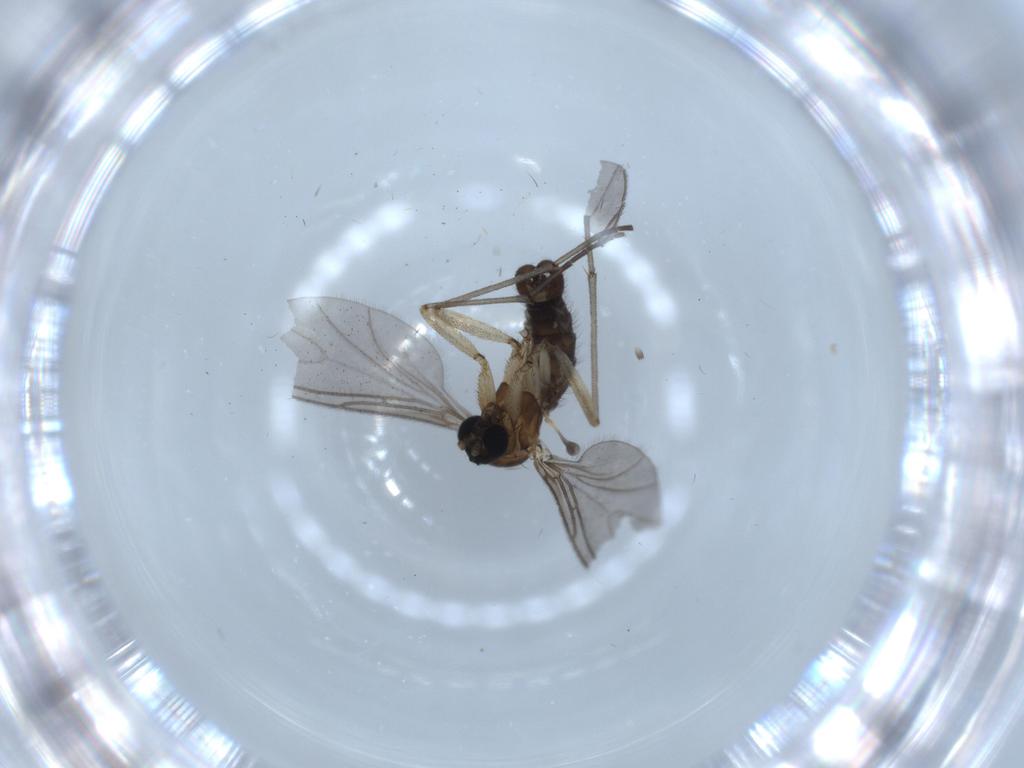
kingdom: Animalia
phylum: Arthropoda
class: Insecta
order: Diptera
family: Sciaridae
